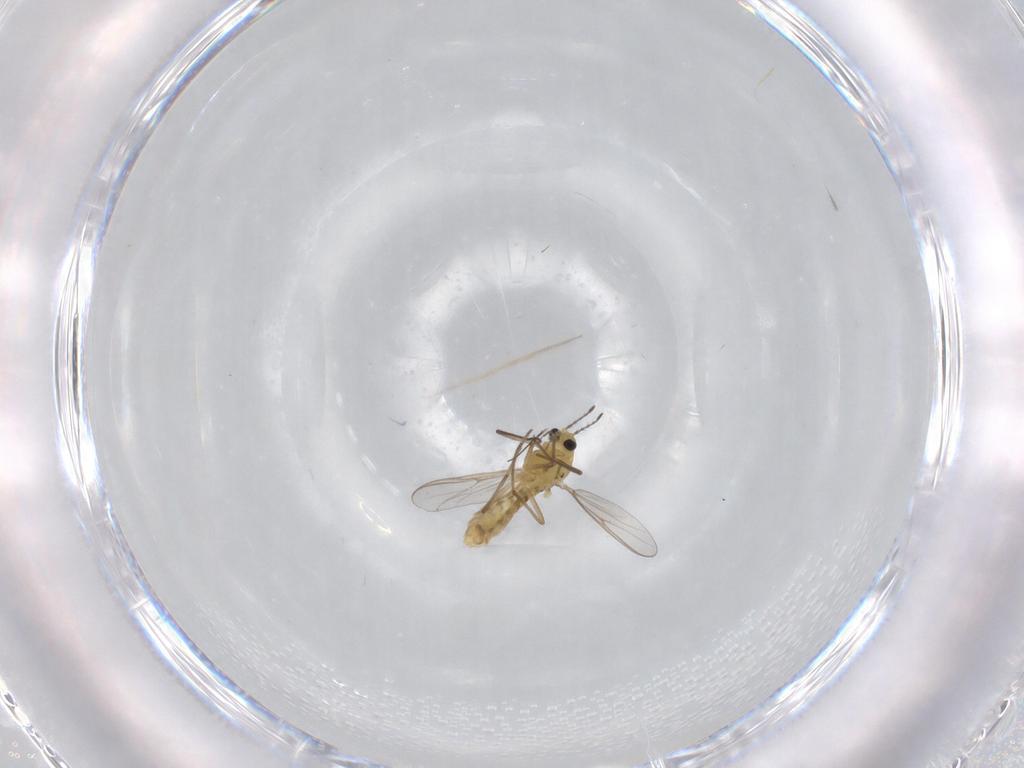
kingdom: Animalia
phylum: Arthropoda
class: Insecta
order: Diptera
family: Chironomidae
